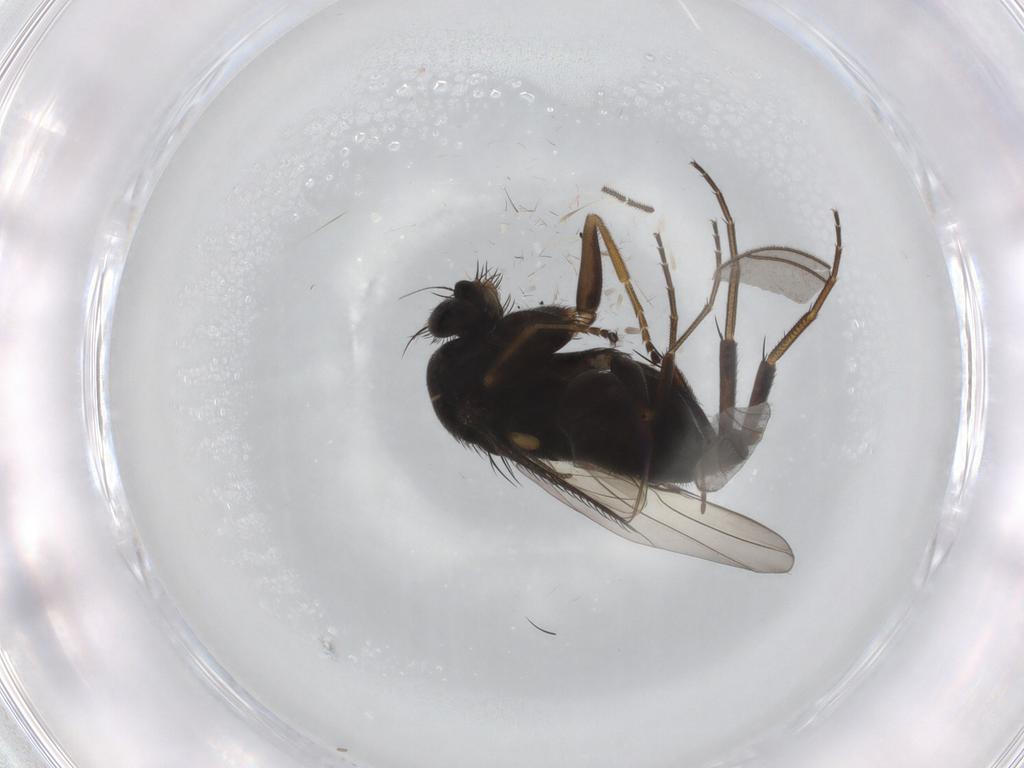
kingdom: Animalia
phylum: Arthropoda
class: Insecta
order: Diptera
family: Phoridae
